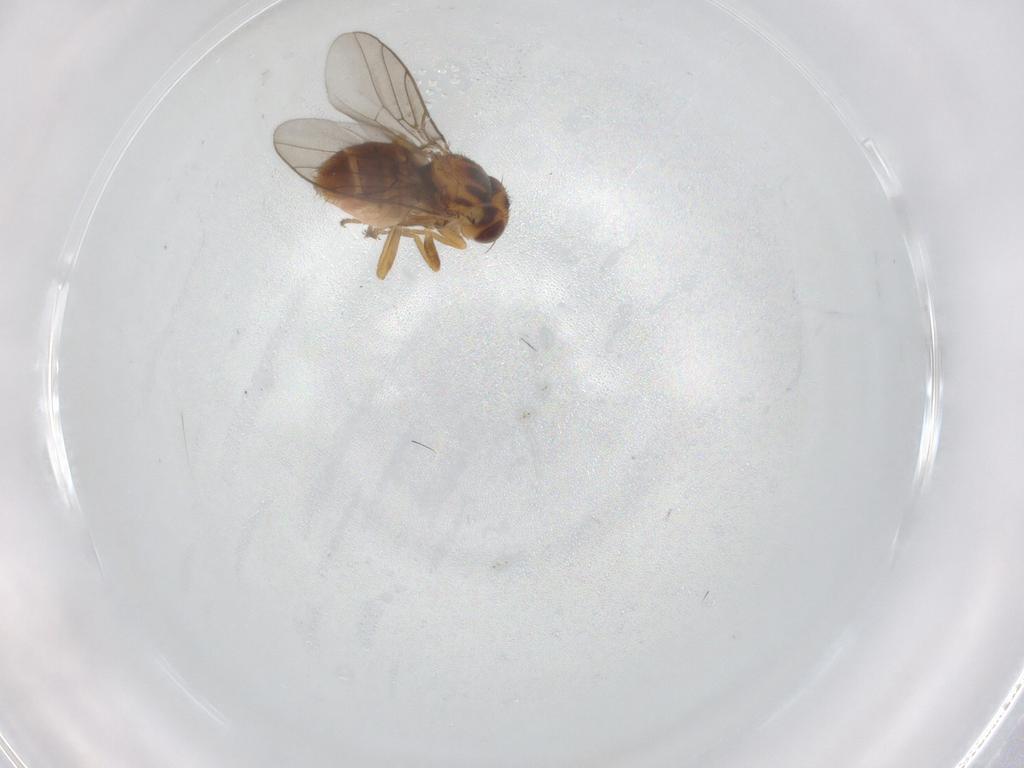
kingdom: Animalia
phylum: Arthropoda
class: Insecta
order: Diptera
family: Chloropidae
